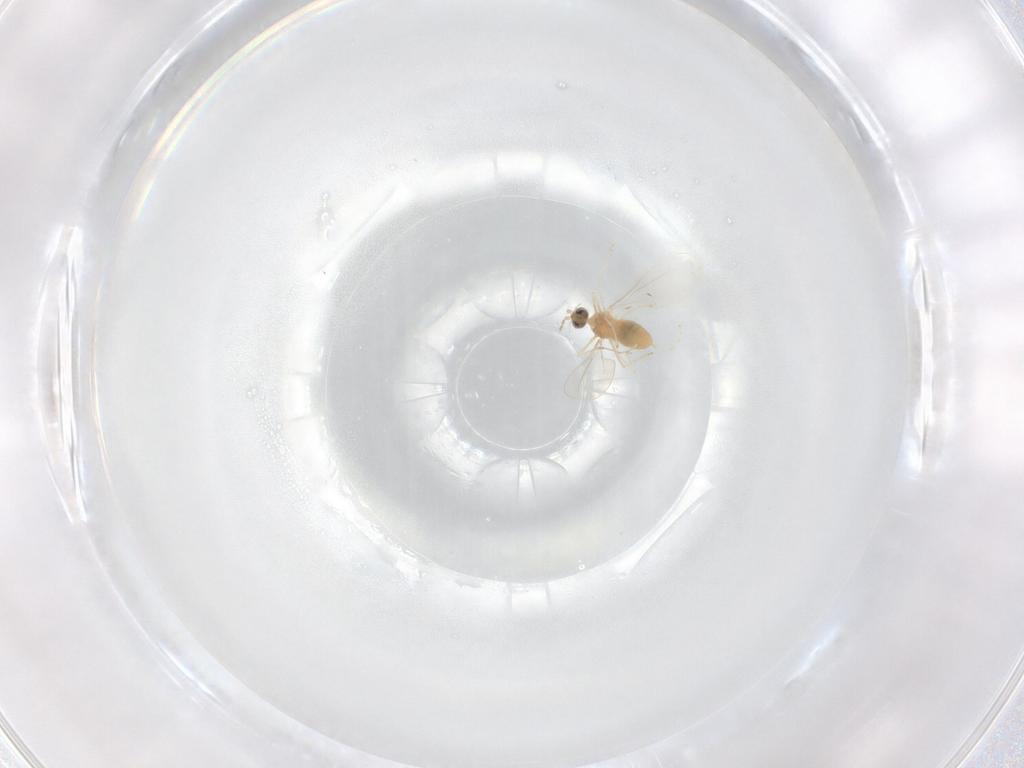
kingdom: Animalia
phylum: Arthropoda
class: Insecta
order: Diptera
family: Cecidomyiidae
